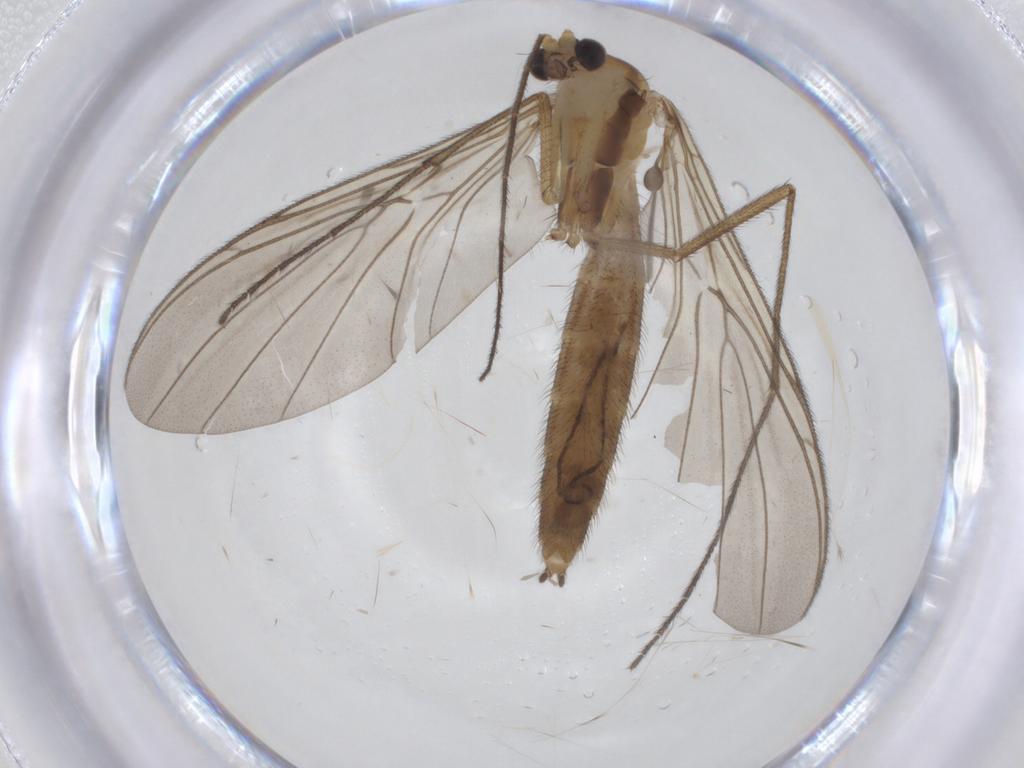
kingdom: Animalia
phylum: Arthropoda
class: Insecta
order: Diptera
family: Keroplatidae
